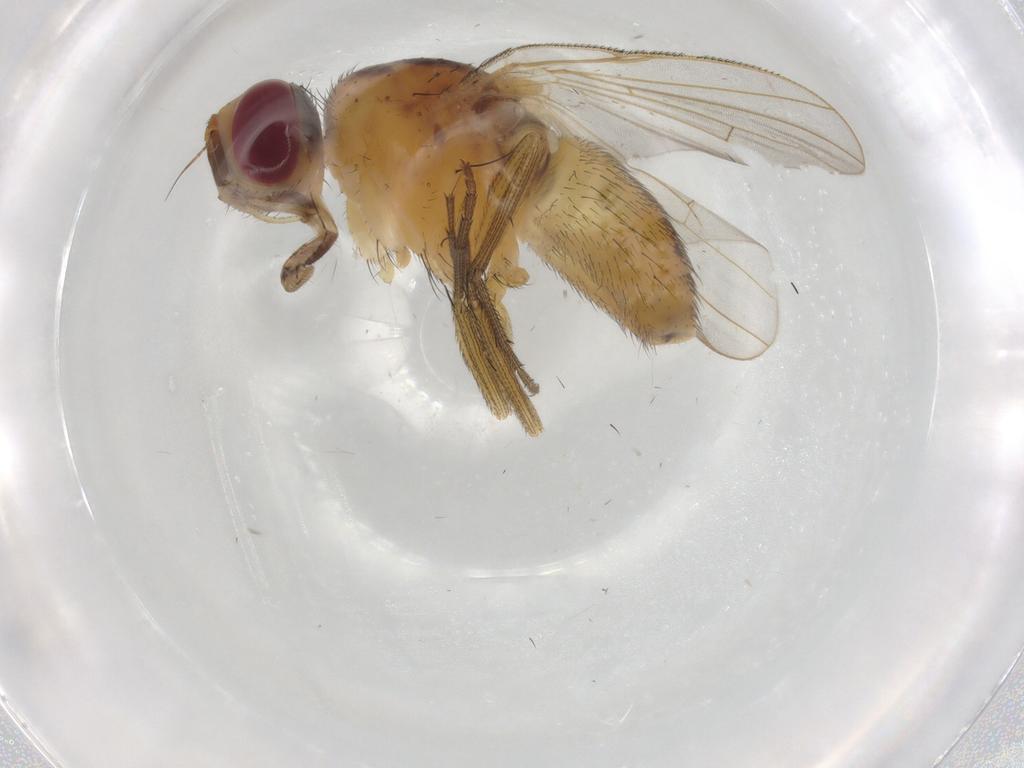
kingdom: Animalia
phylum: Arthropoda
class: Insecta
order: Diptera
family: Muscidae
